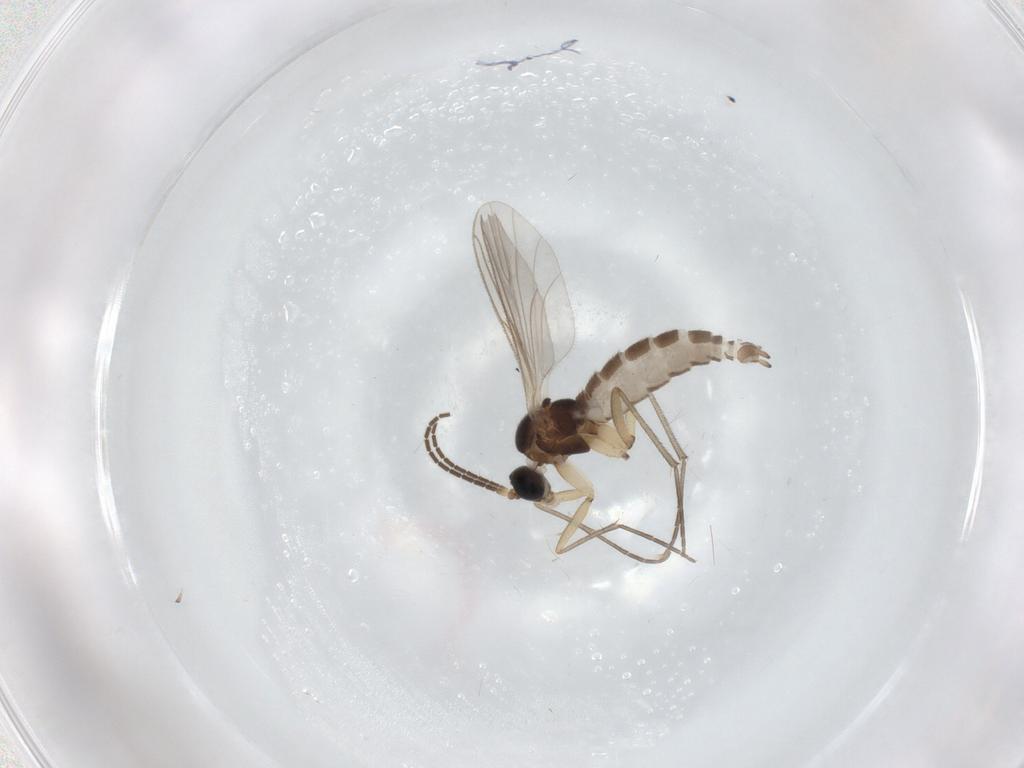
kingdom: Animalia
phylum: Arthropoda
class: Insecta
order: Diptera
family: Sciaridae
